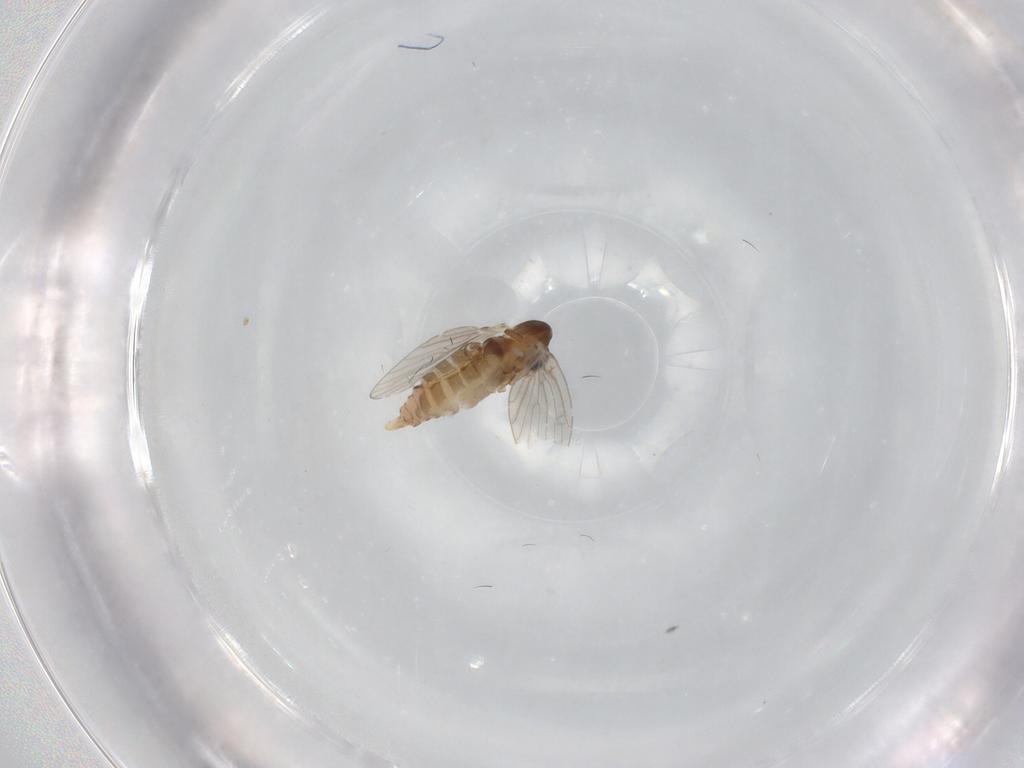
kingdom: Animalia
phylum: Arthropoda
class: Insecta
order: Diptera
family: Psychodidae
